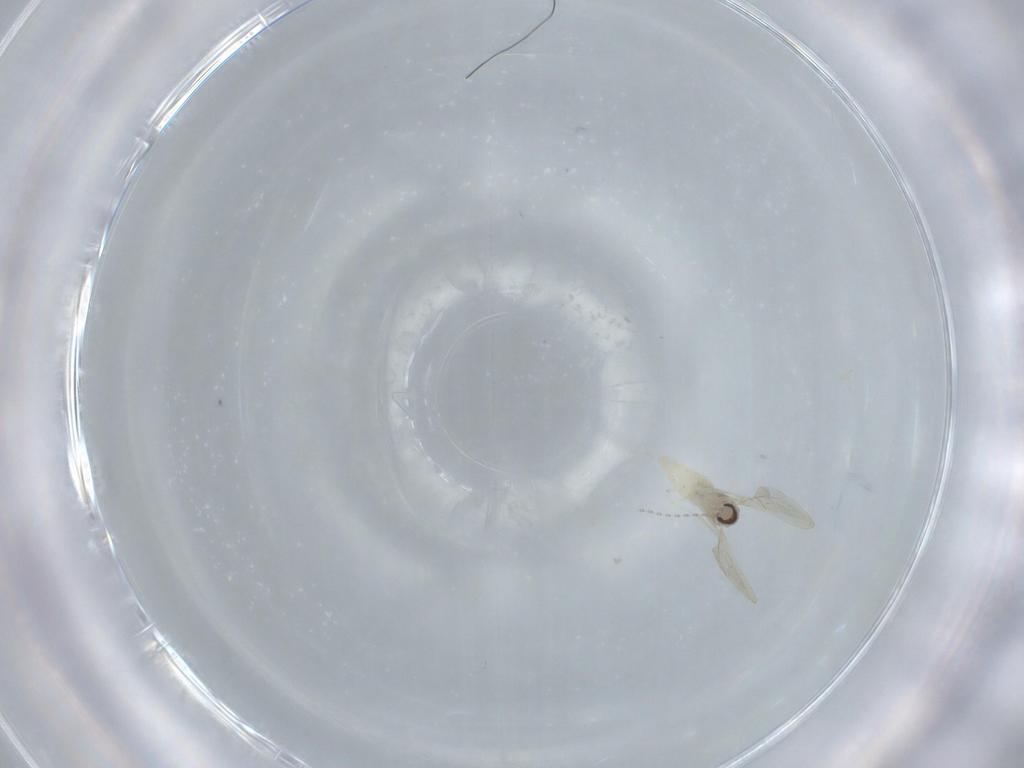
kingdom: Animalia
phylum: Arthropoda
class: Insecta
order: Diptera
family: Cecidomyiidae
